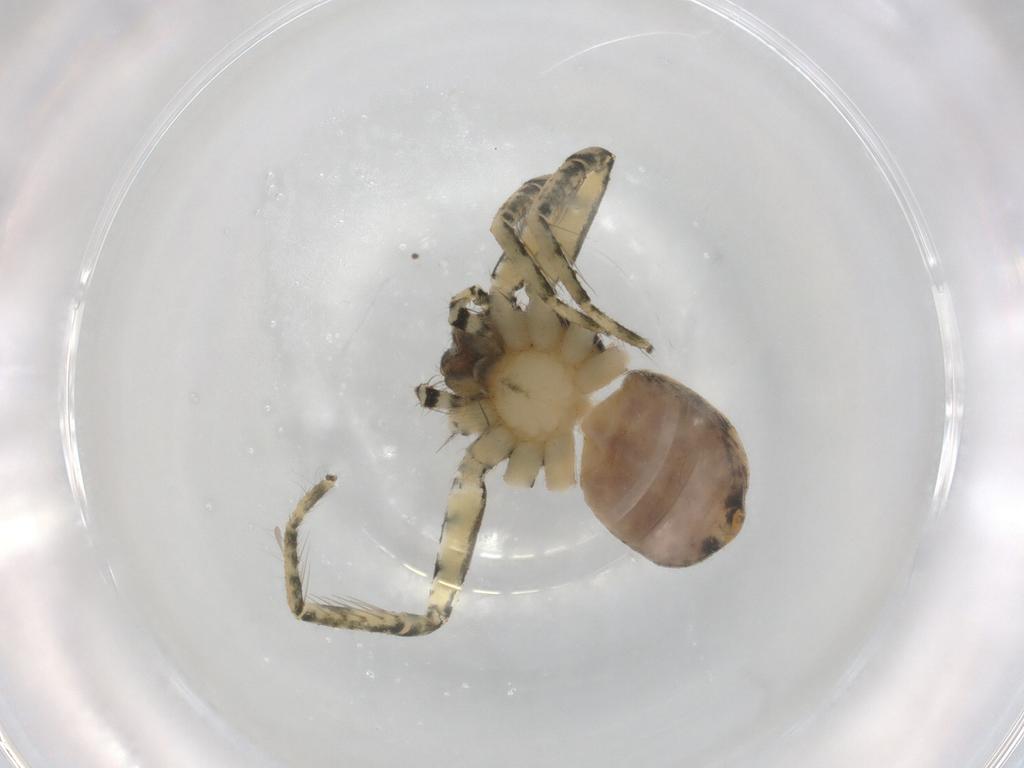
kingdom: Animalia
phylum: Arthropoda
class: Arachnida
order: Araneae
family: Selenopidae
